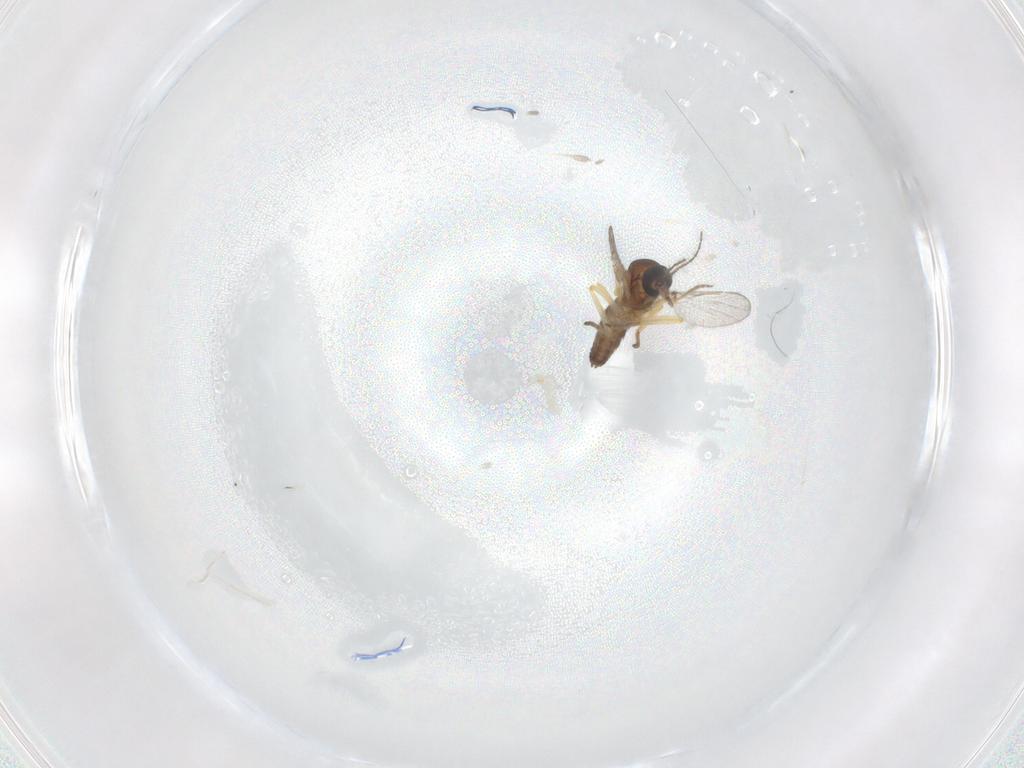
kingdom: Animalia
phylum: Arthropoda
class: Insecta
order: Diptera
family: Ceratopogonidae
